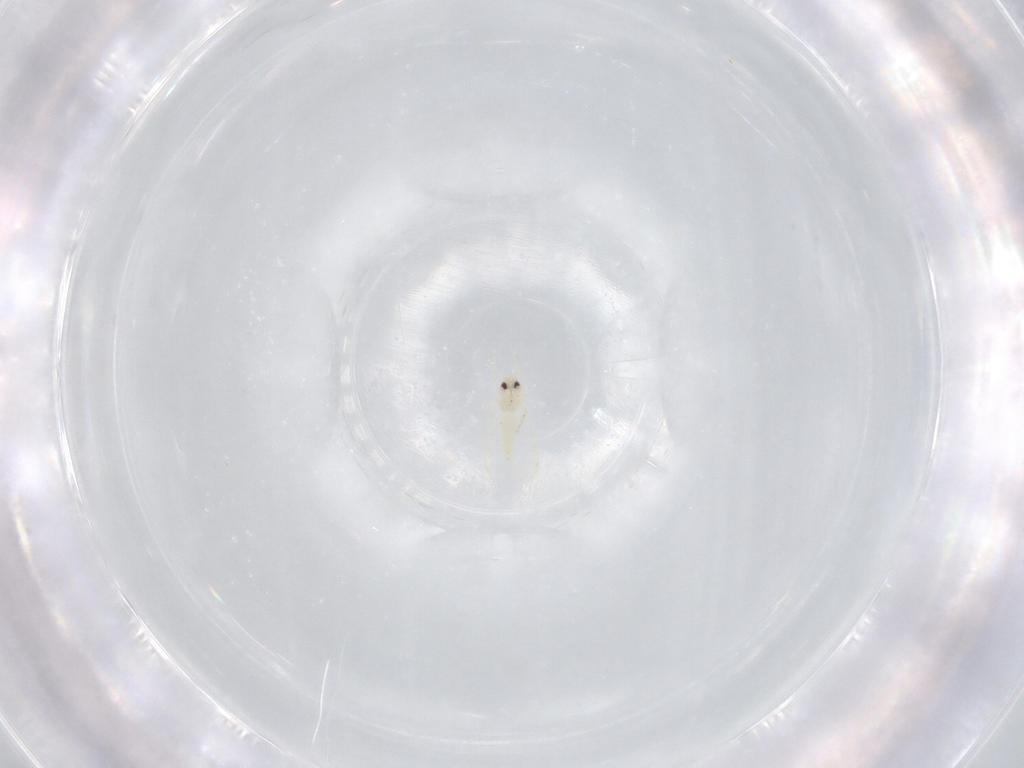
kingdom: Animalia
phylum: Arthropoda
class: Insecta
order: Hemiptera
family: Aleyrodidae
